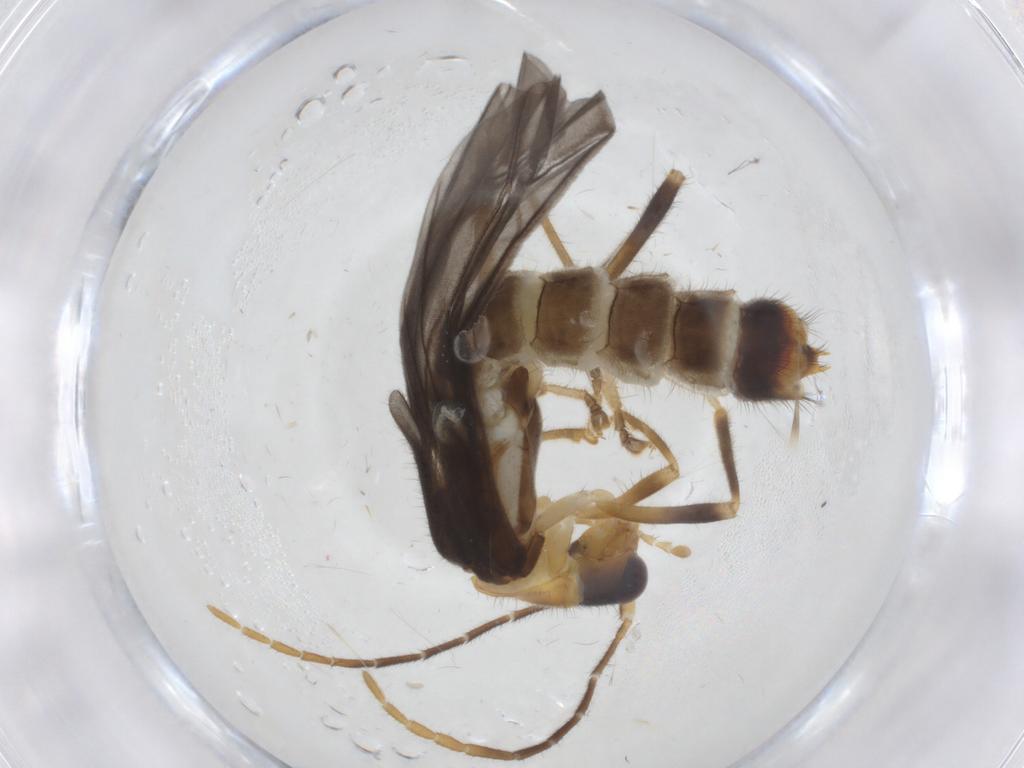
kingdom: Animalia
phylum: Arthropoda
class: Insecta
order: Coleoptera
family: Cantharidae
